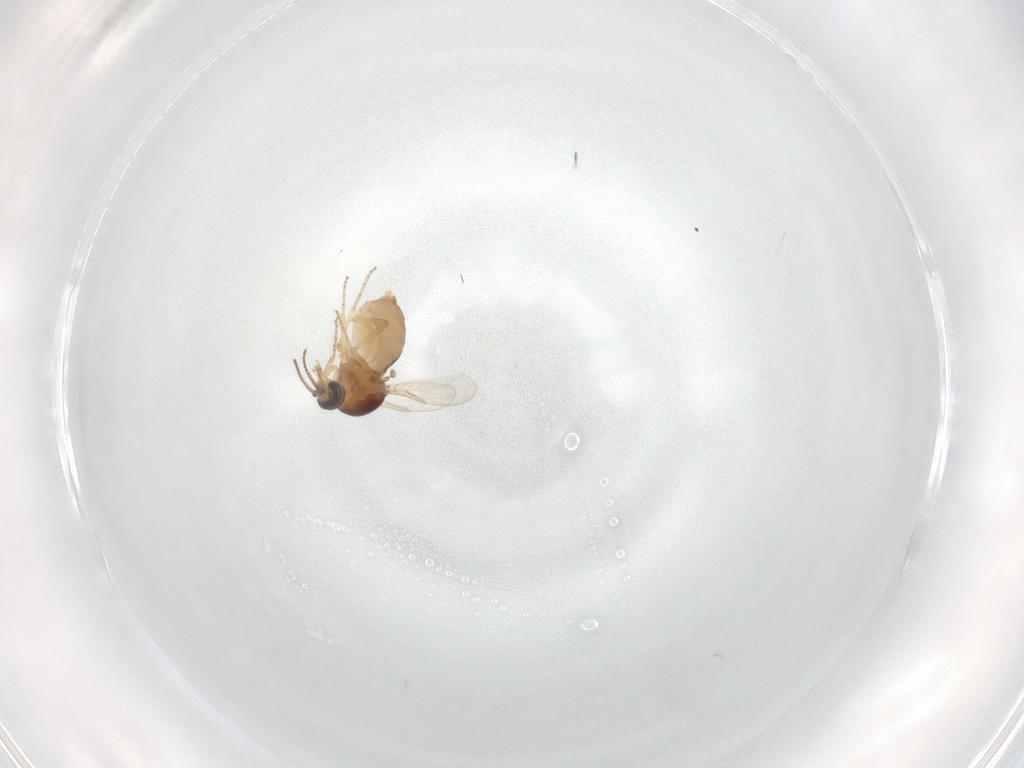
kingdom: Animalia
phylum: Arthropoda
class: Insecta
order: Diptera
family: Ceratopogonidae
